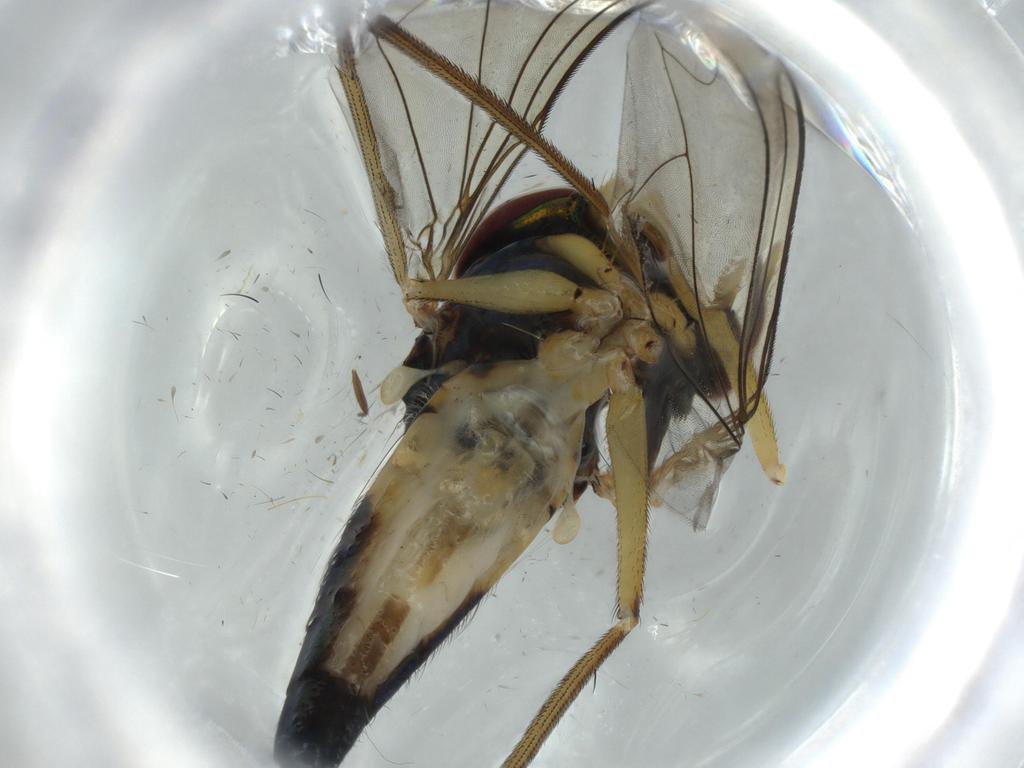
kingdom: Animalia
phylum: Arthropoda
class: Insecta
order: Diptera
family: Dolichopodidae
